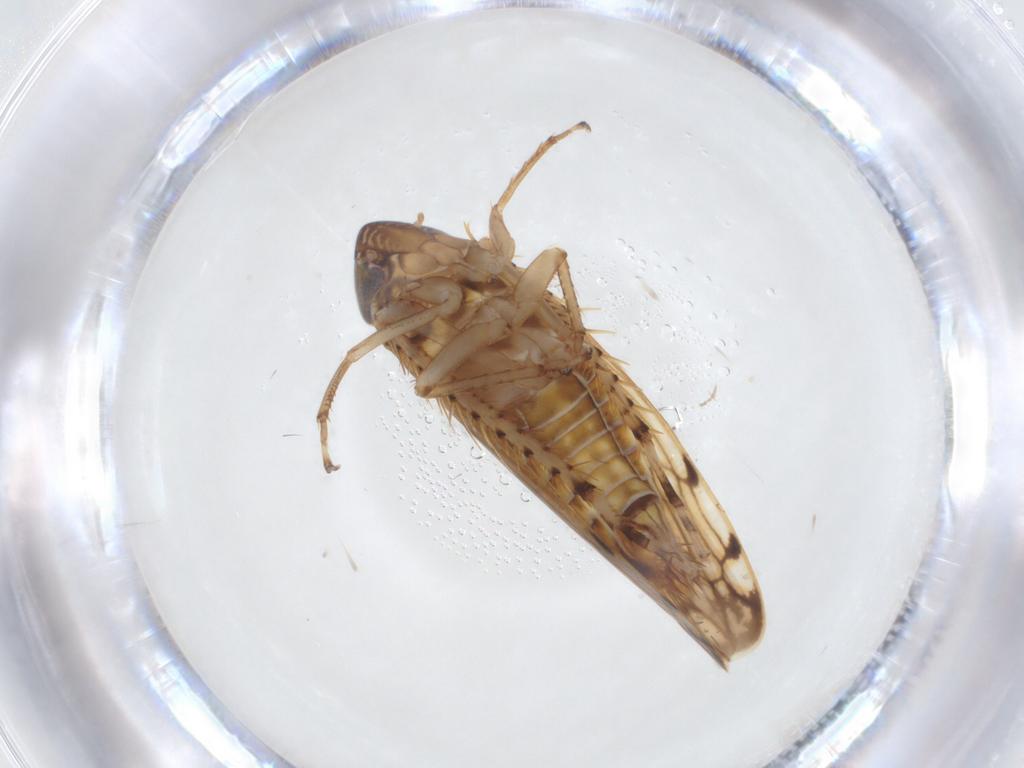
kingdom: Animalia
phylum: Arthropoda
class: Insecta
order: Hemiptera
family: Cicadellidae
